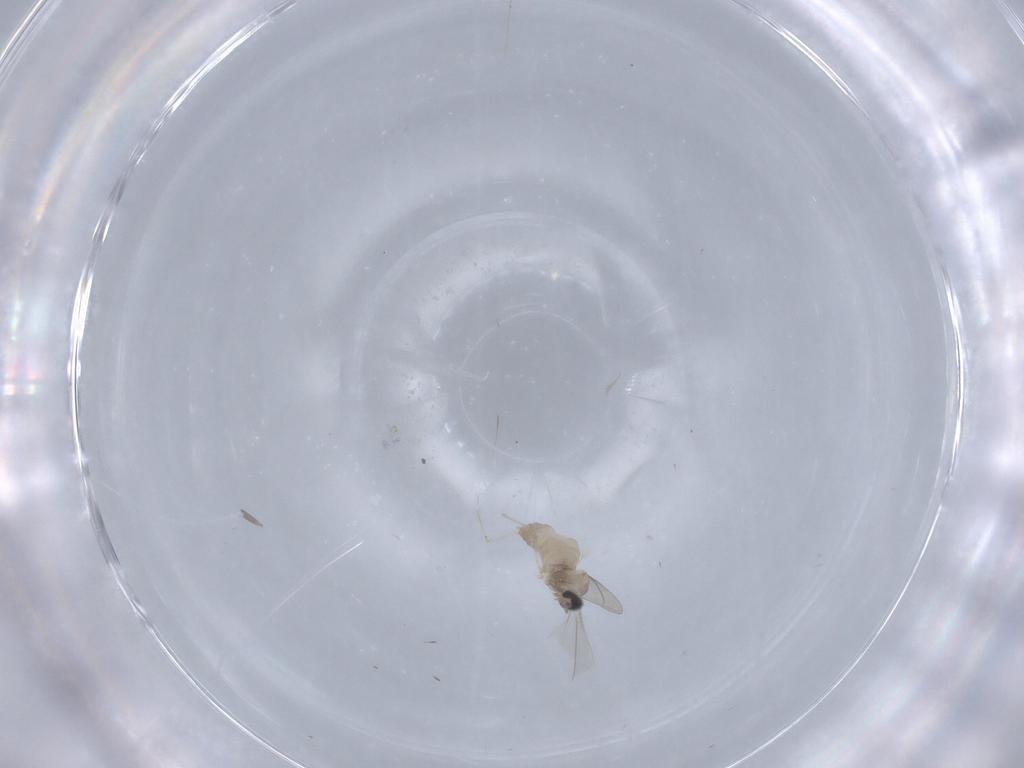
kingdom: Animalia
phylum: Arthropoda
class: Insecta
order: Diptera
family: Cecidomyiidae
